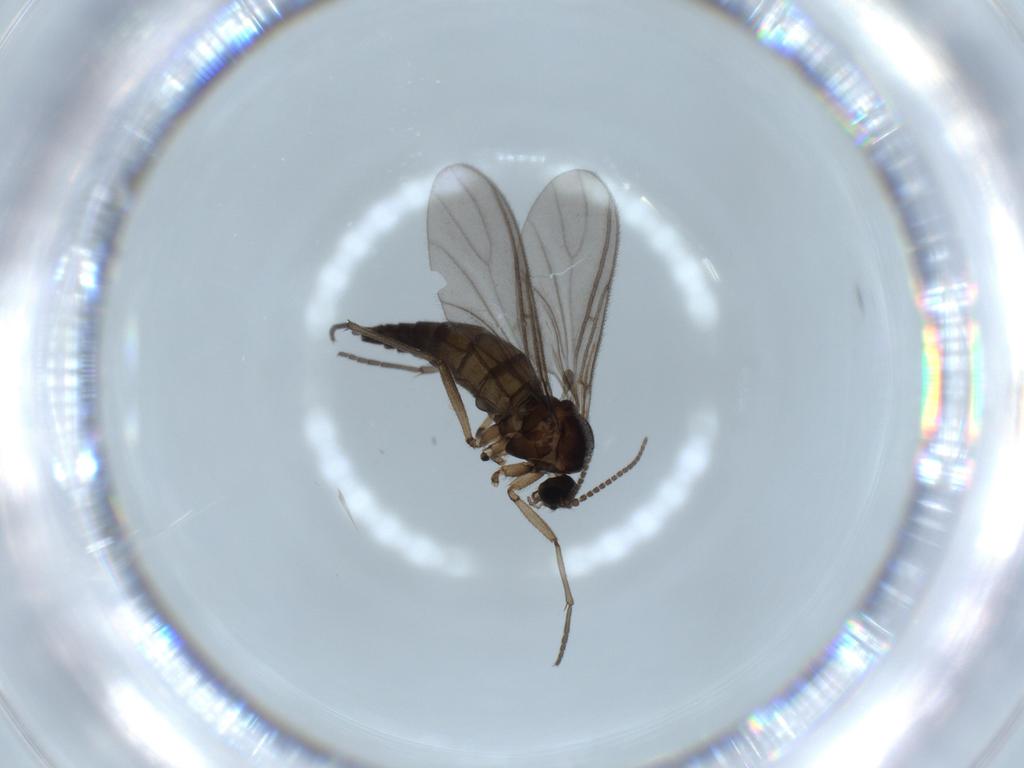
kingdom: Animalia
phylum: Arthropoda
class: Insecta
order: Diptera
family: Sciaridae
